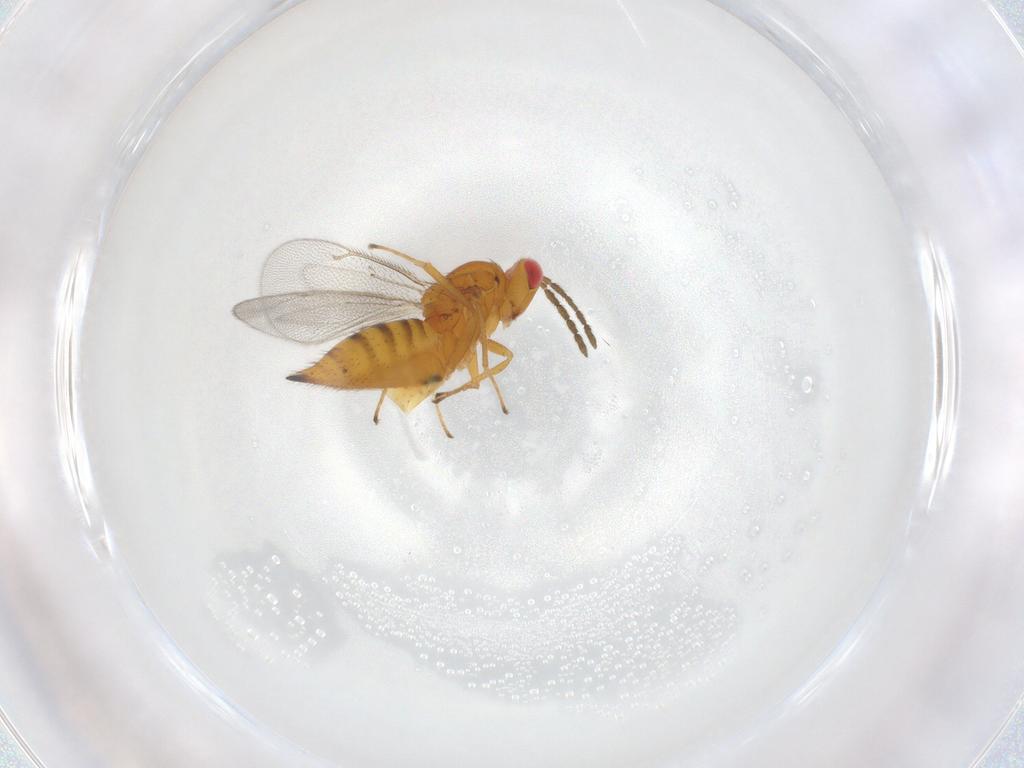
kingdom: Animalia
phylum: Arthropoda
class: Insecta
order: Hymenoptera
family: Eulophidae
